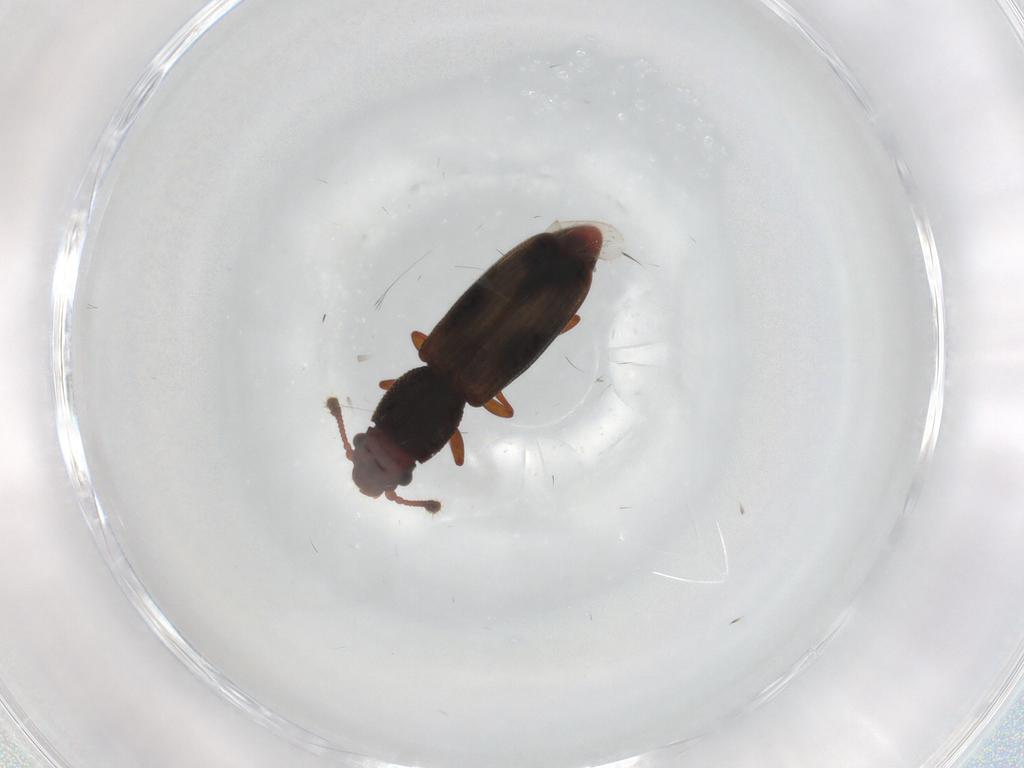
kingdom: Animalia
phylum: Arthropoda
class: Insecta
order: Coleoptera
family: Monotomidae
